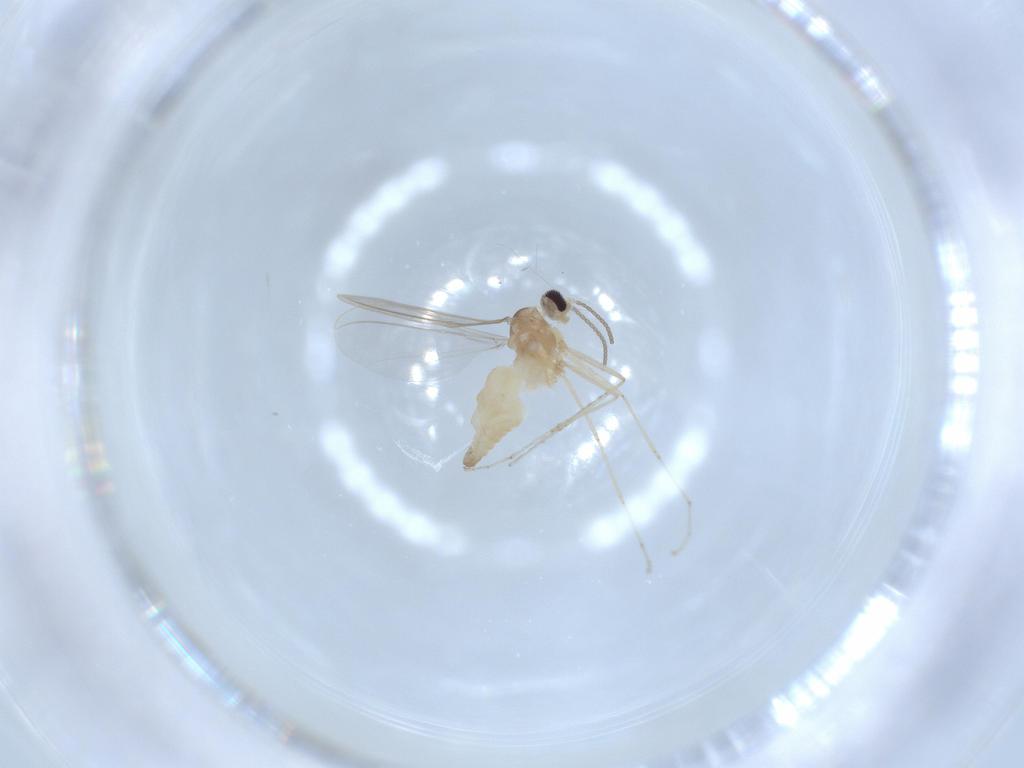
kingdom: Animalia
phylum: Arthropoda
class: Insecta
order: Diptera
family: Cecidomyiidae
